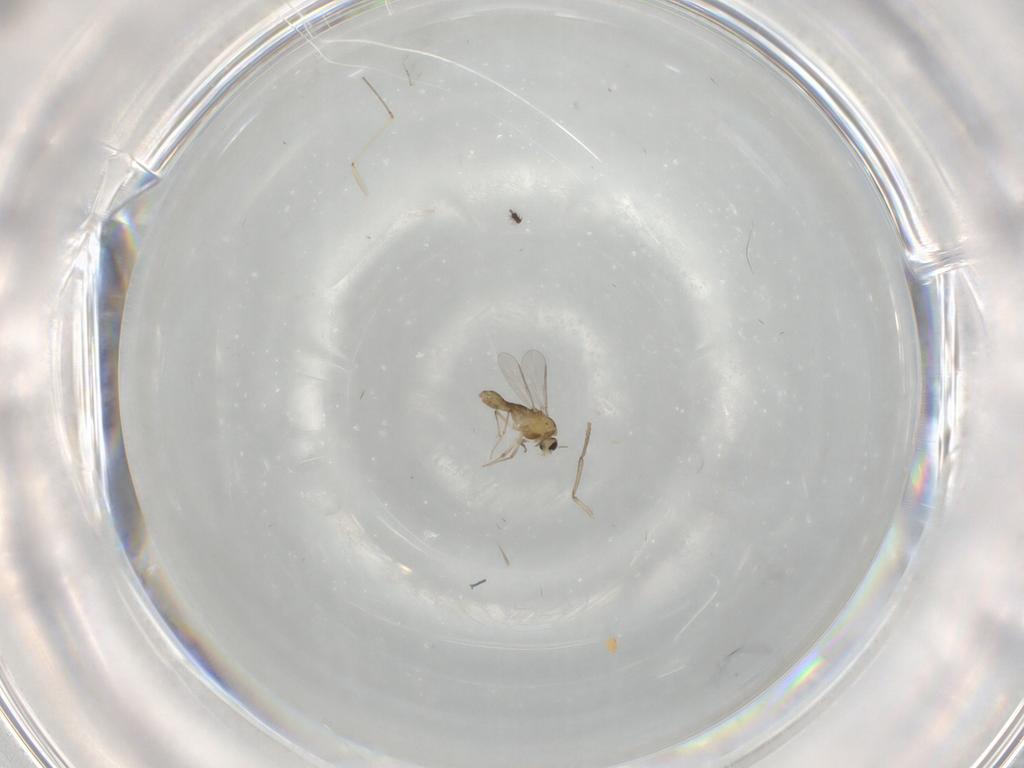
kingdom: Animalia
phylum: Arthropoda
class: Insecta
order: Diptera
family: Chironomidae
